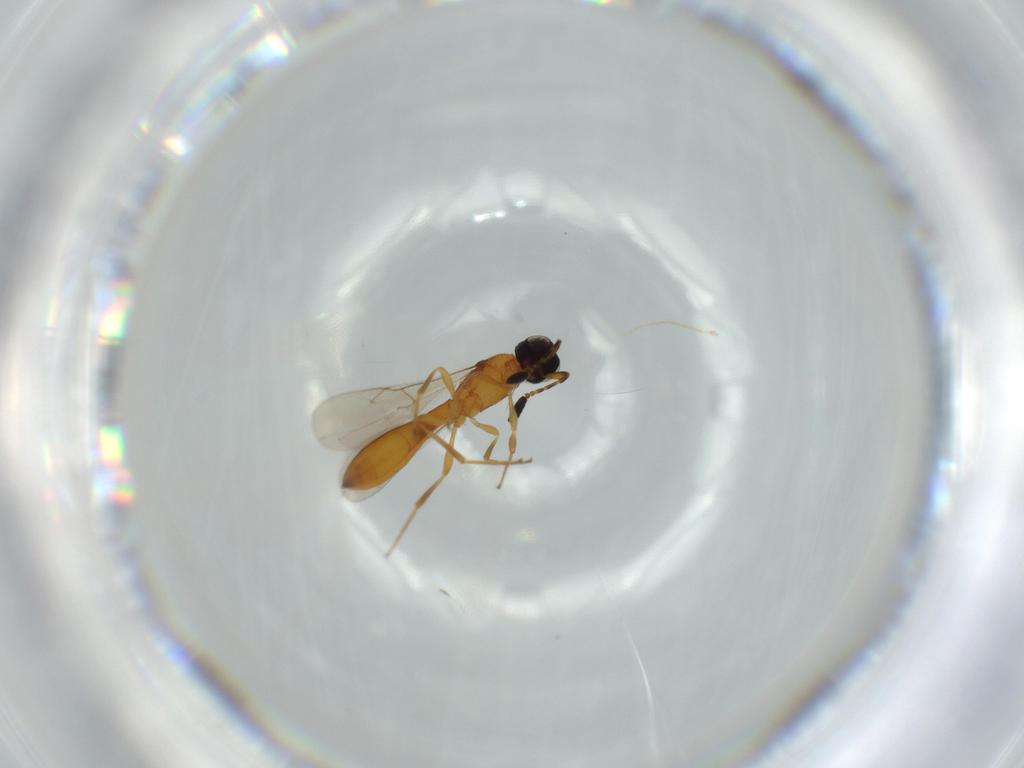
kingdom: Animalia
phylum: Arthropoda
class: Insecta
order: Hymenoptera
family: Scelionidae
